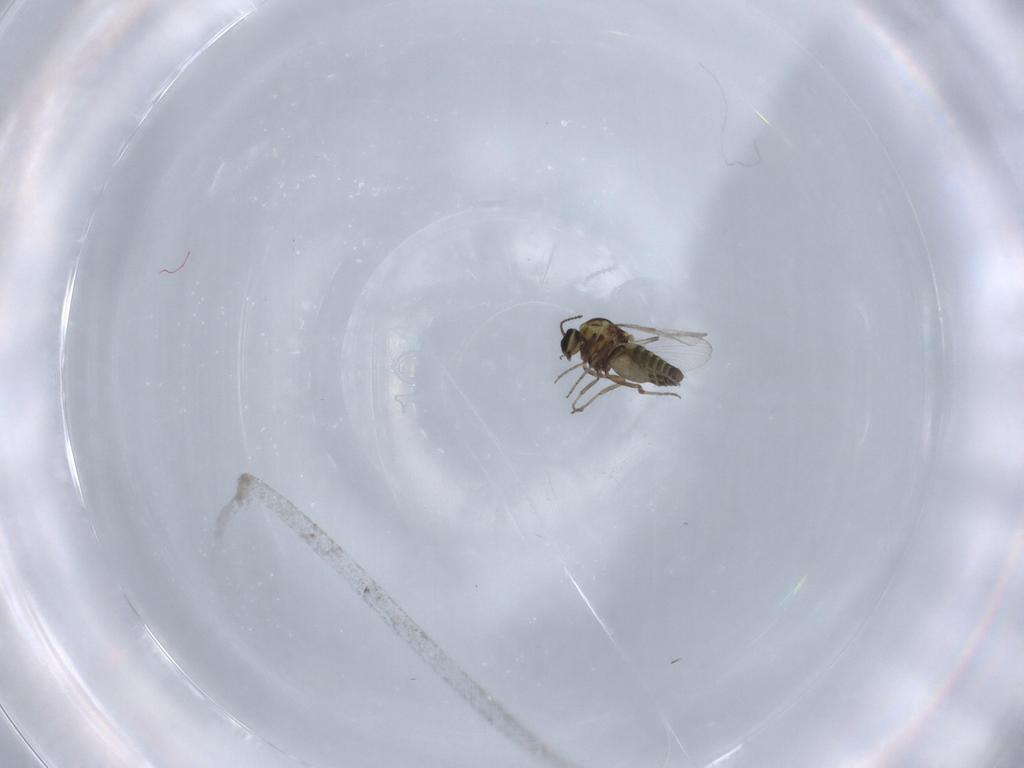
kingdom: Animalia
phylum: Arthropoda
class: Insecta
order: Diptera
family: Ceratopogonidae
